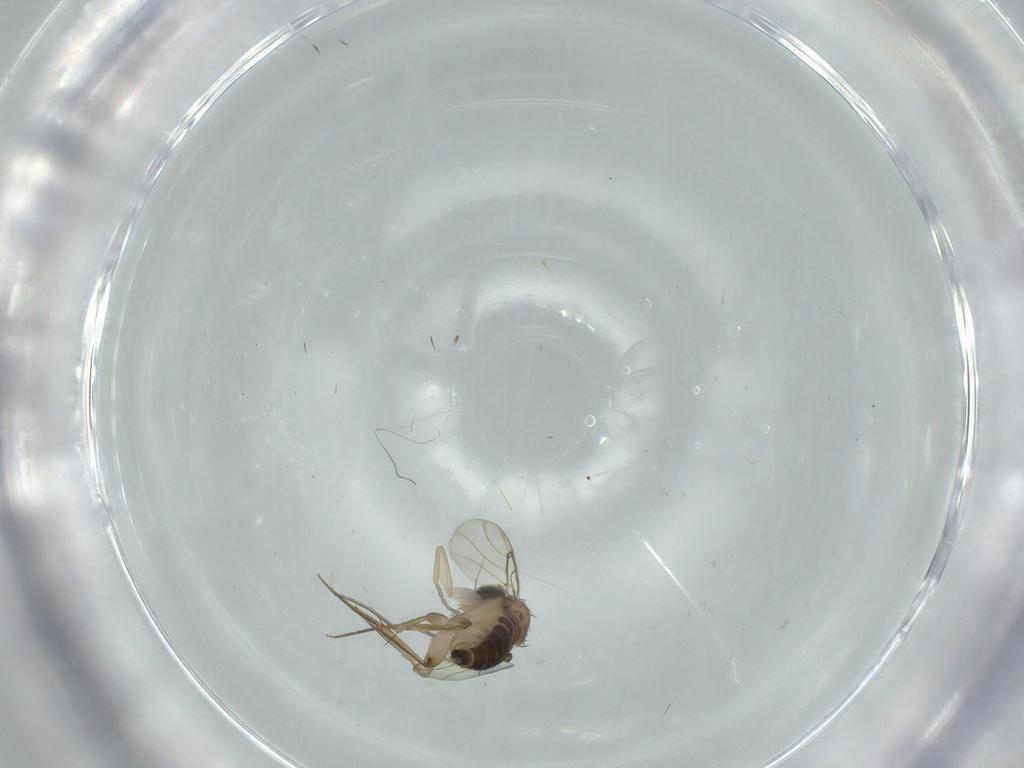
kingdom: Animalia
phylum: Arthropoda
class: Insecta
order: Diptera
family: Phoridae
